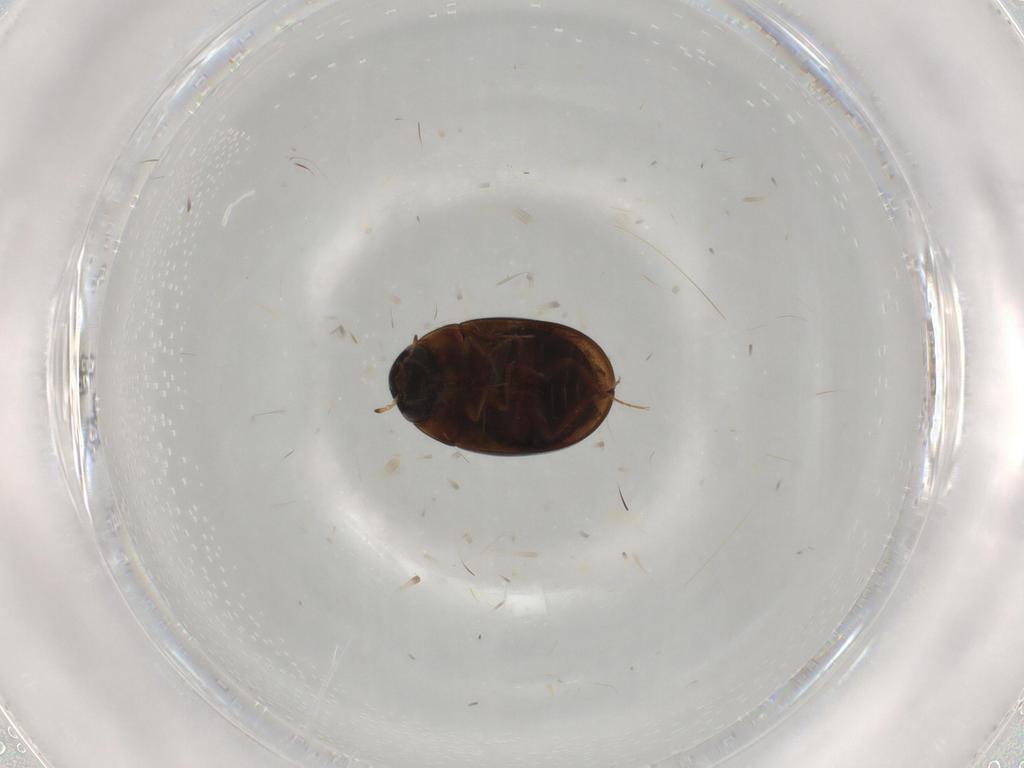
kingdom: Animalia
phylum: Arthropoda
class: Insecta
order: Coleoptera
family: Hydrophilidae
